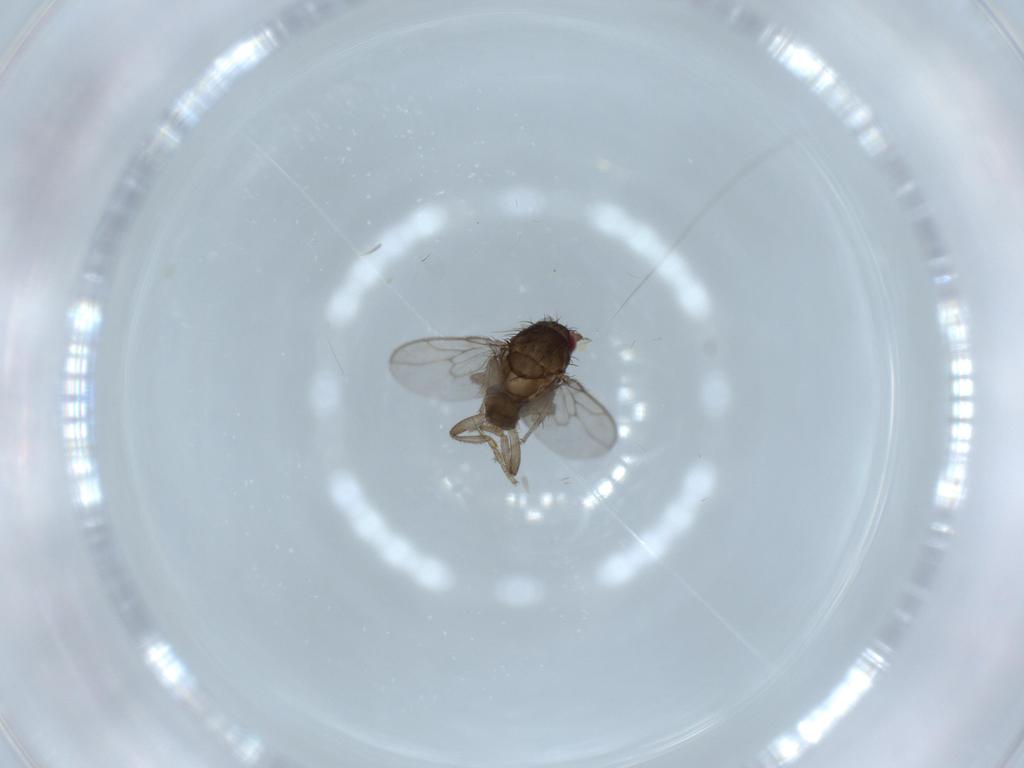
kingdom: Animalia
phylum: Arthropoda
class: Insecta
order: Diptera
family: Sphaeroceridae
